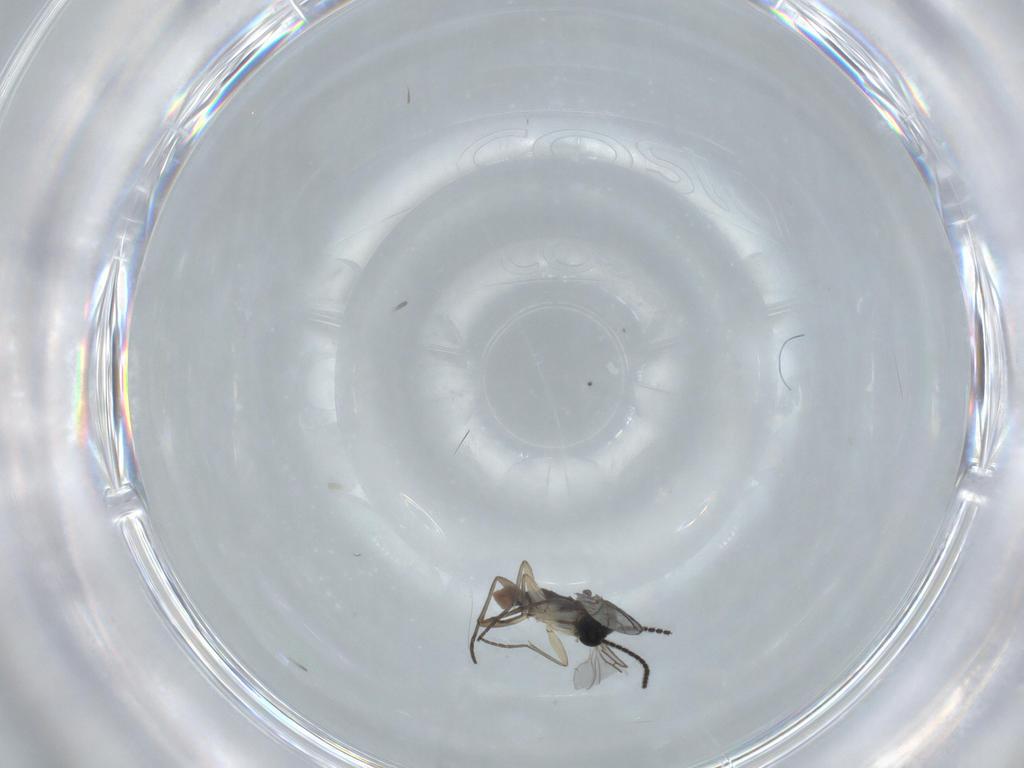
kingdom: Animalia
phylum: Arthropoda
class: Insecta
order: Diptera
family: Sciaridae
